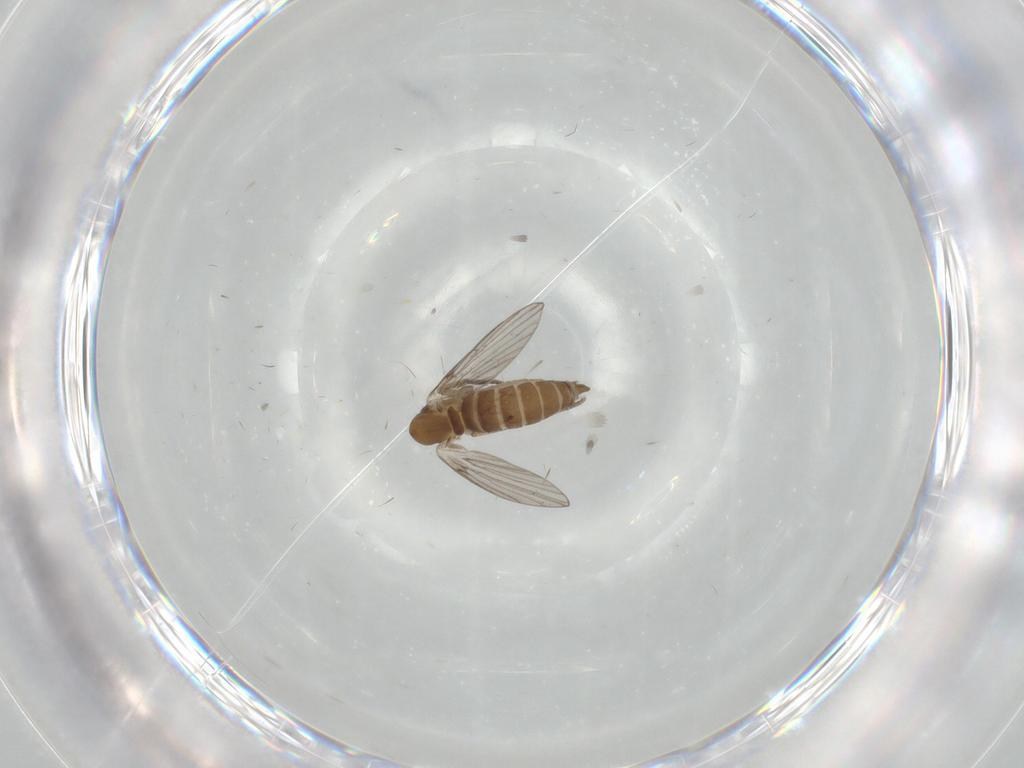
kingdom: Animalia
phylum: Arthropoda
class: Insecta
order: Diptera
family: Psychodidae
